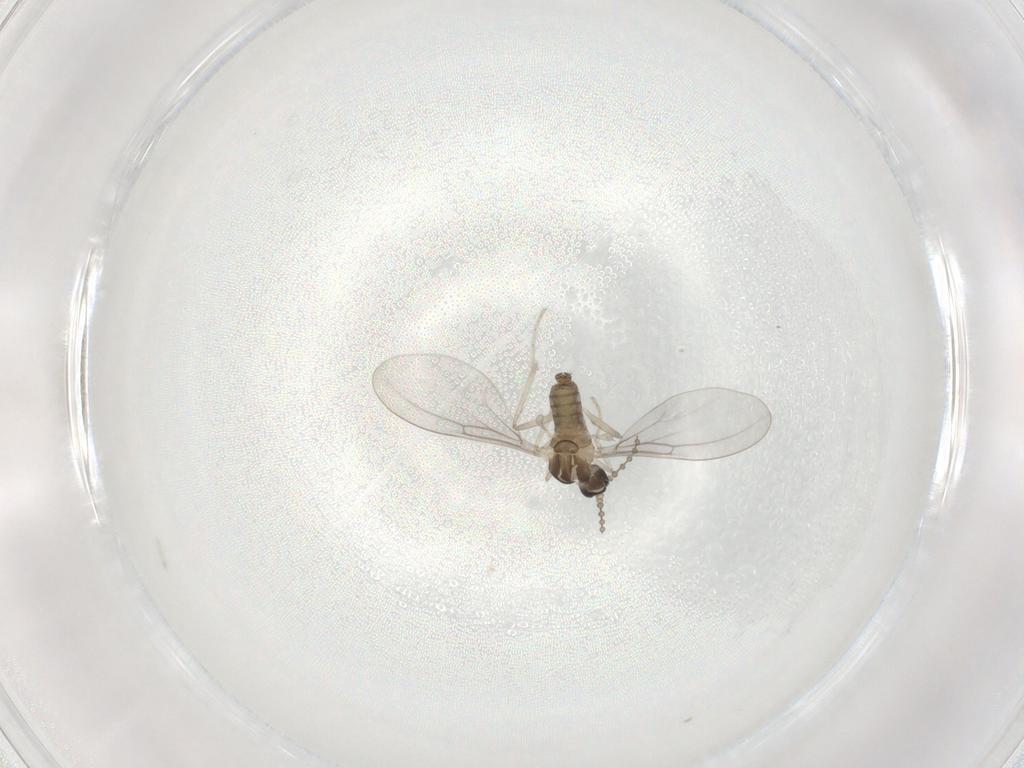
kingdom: Animalia
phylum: Arthropoda
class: Insecta
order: Diptera
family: Cecidomyiidae
